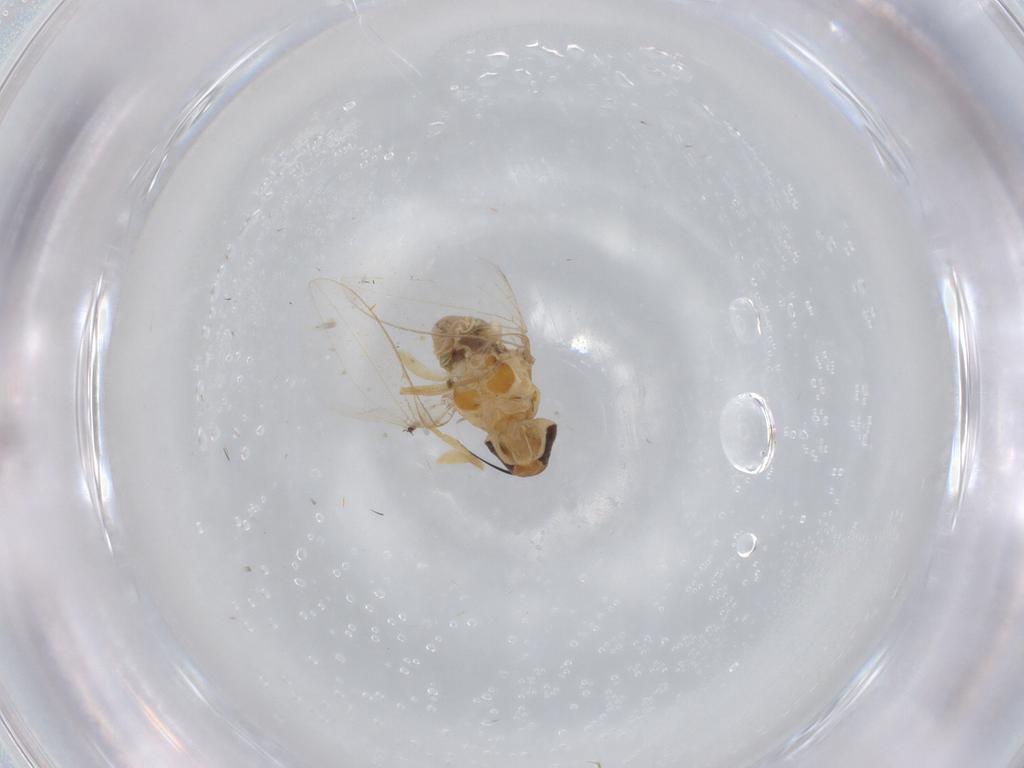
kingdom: Animalia
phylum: Arthropoda
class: Insecta
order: Diptera
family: Asteiidae
